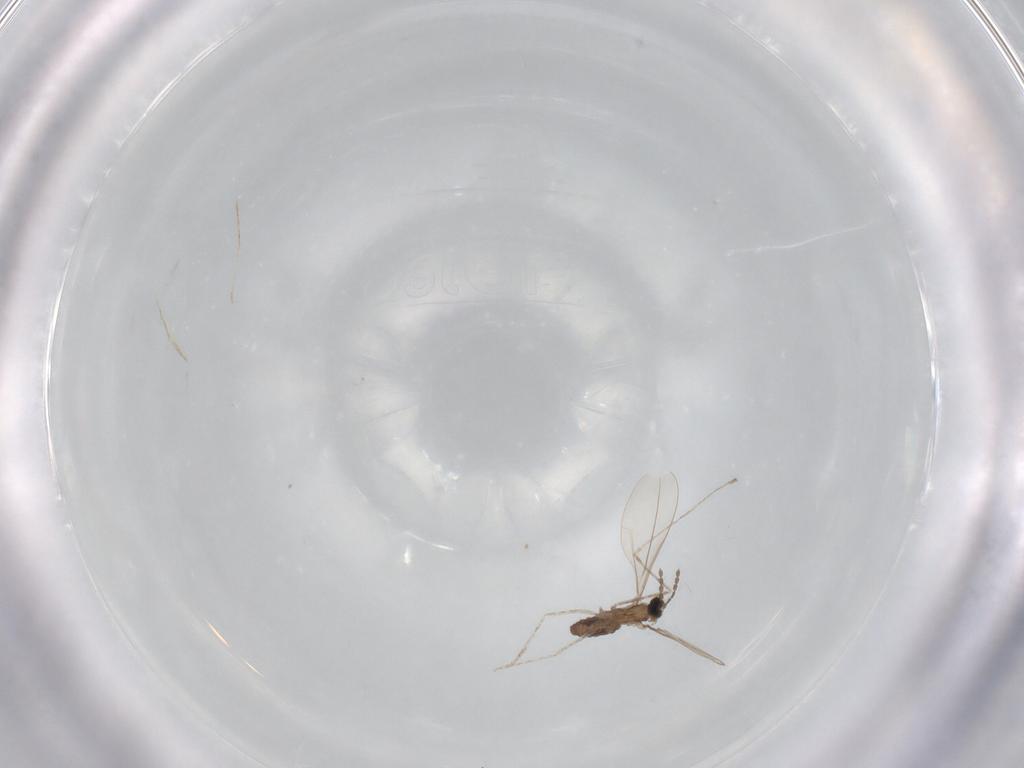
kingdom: Animalia
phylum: Arthropoda
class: Insecta
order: Diptera
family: Cecidomyiidae
